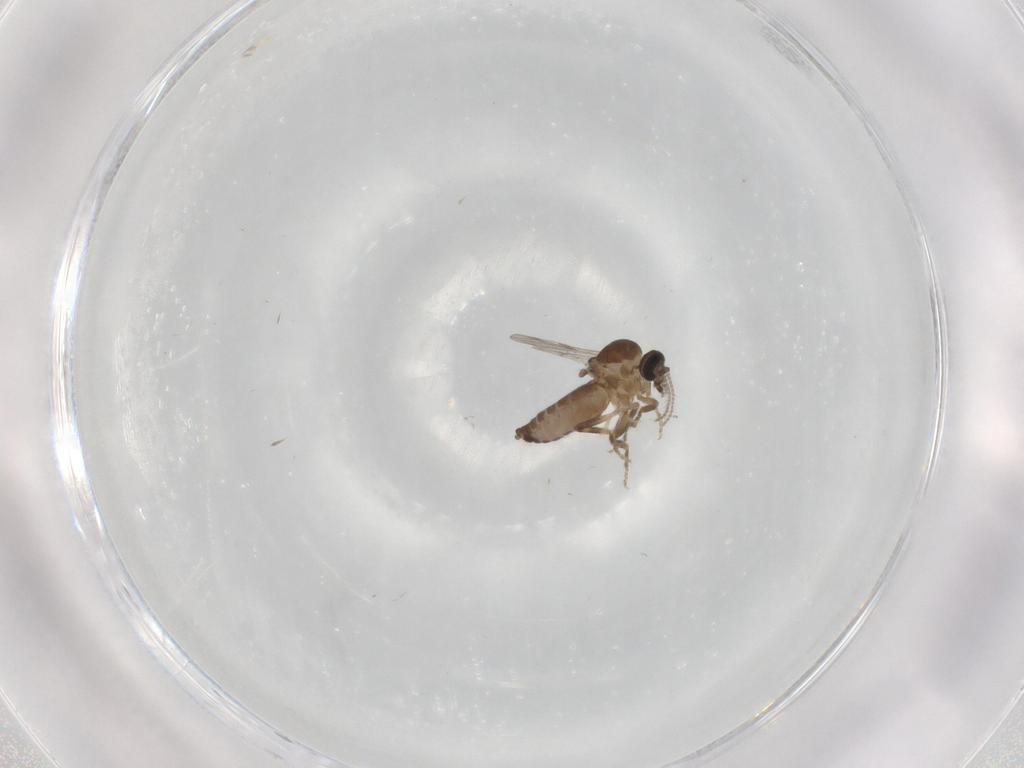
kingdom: Animalia
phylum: Arthropoda
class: Insecta
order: Diptera
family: Ceratopogonidae
